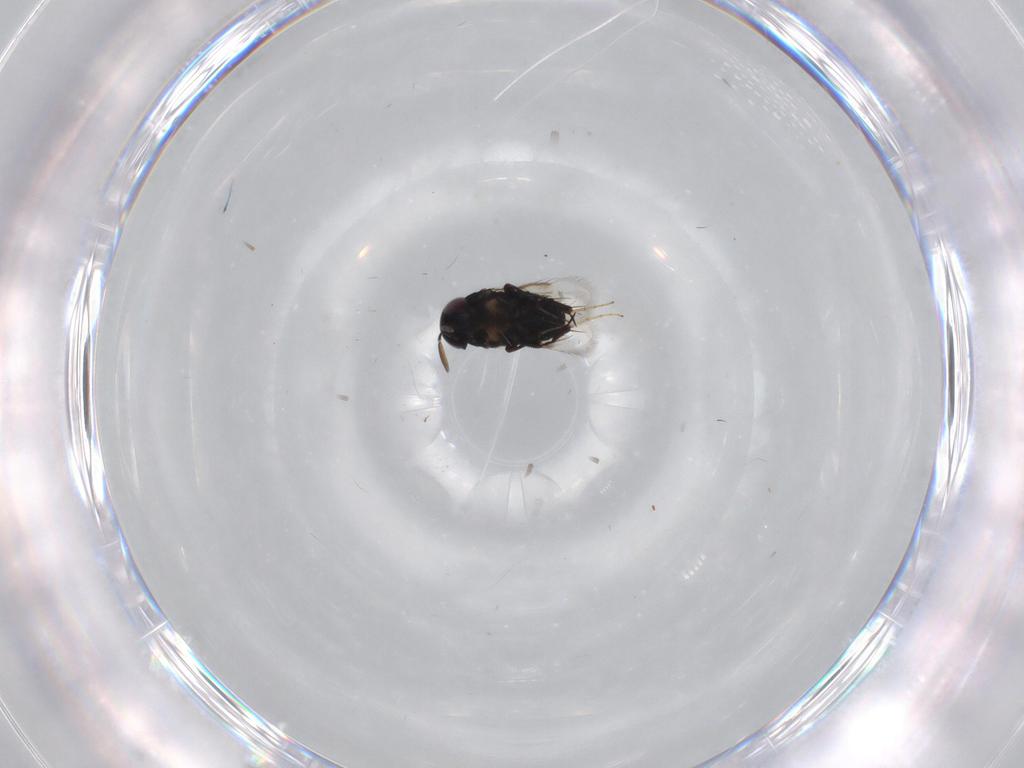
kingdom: Animalia
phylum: Arthropoda
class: Insecta
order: Hymenoptera
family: Signiphoridae
